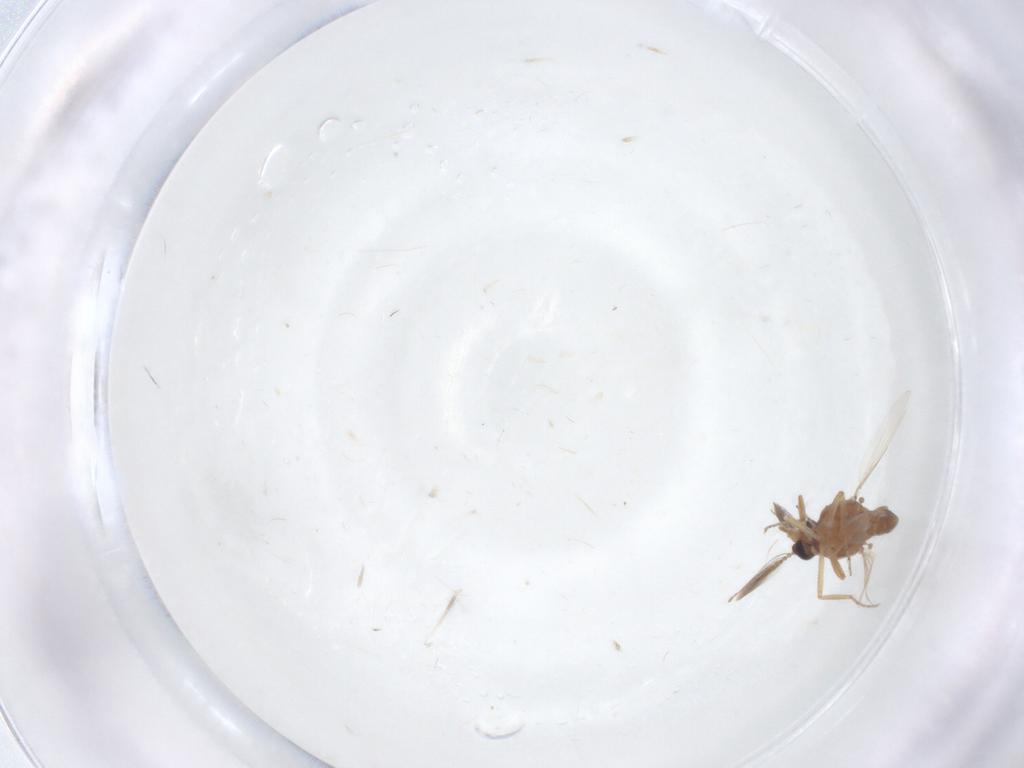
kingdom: Animalia
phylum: Arthropoda
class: Insecta
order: Diptera
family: Ceratopogonidae
